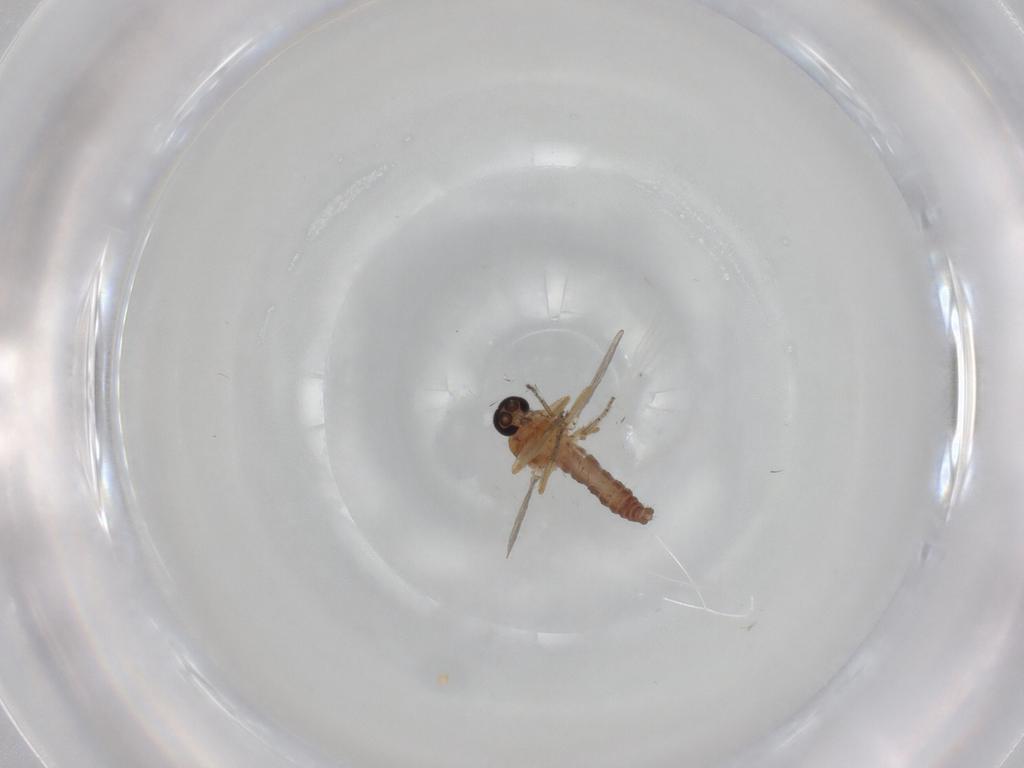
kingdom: Animalia
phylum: Arthropoda
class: Insecta
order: Diptera
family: Ceratopogonidae
